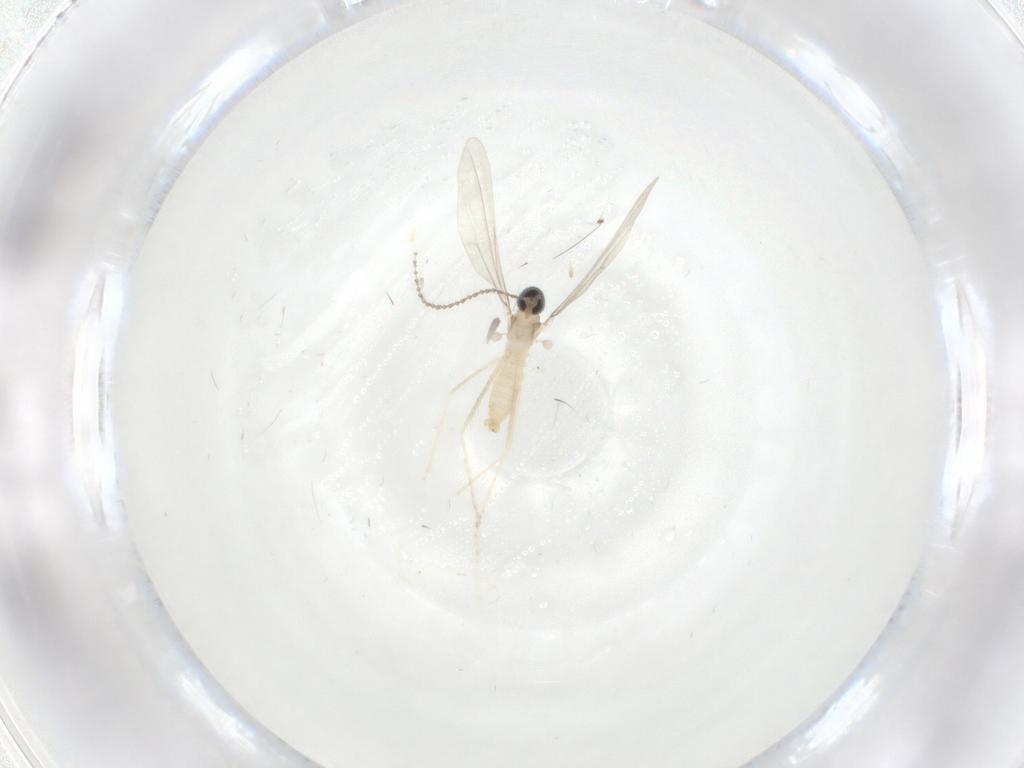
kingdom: Animalia
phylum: Arthropoda
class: Insecta
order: Diptera
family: Cecidomyiidae
